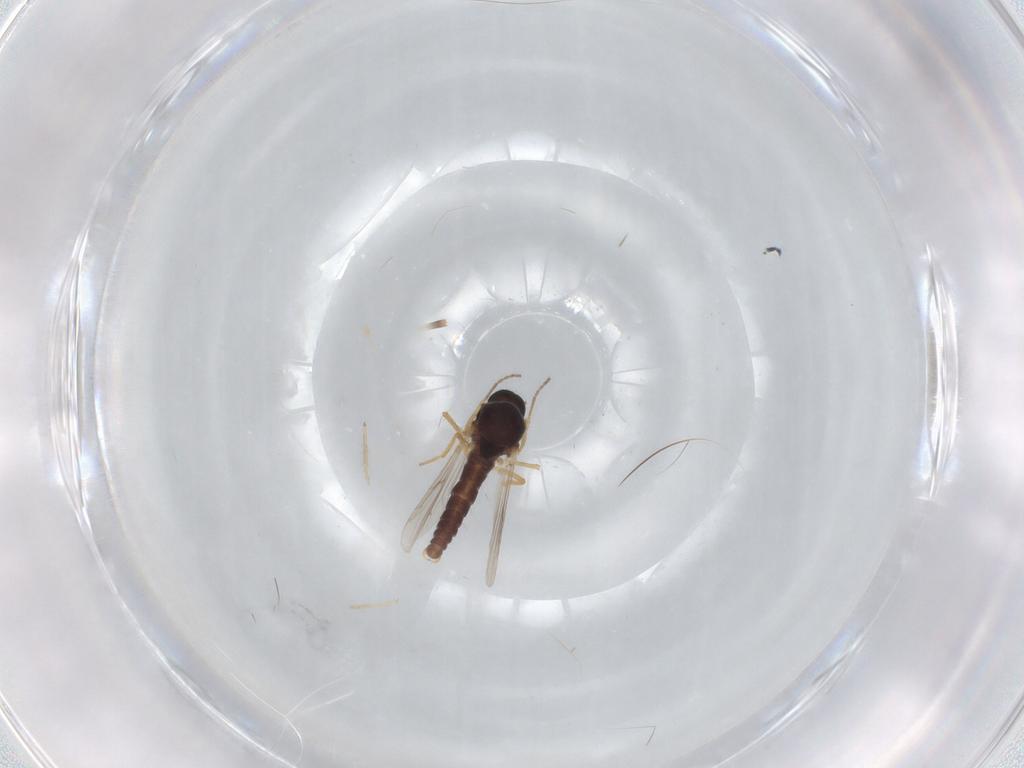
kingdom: Animalia
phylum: Arthropoda
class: Insecta
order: Diptera
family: Ceratopogonidae
